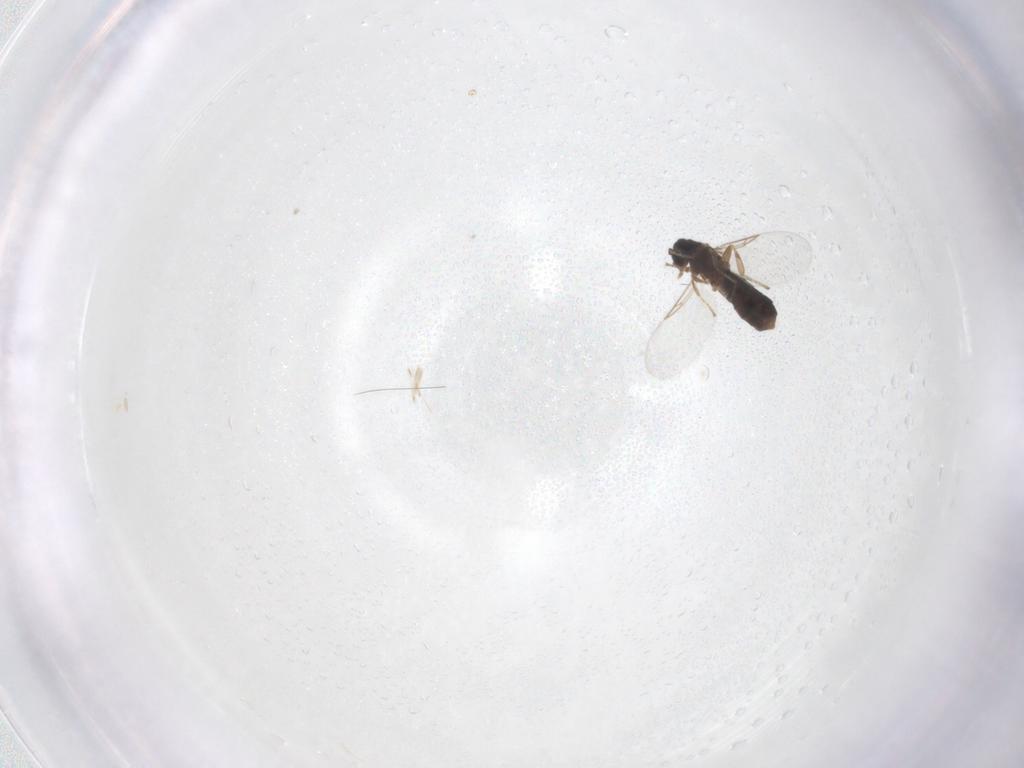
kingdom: Animalia
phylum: Arthropoda
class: Insecta
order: Diptera
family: Scatopsidae
